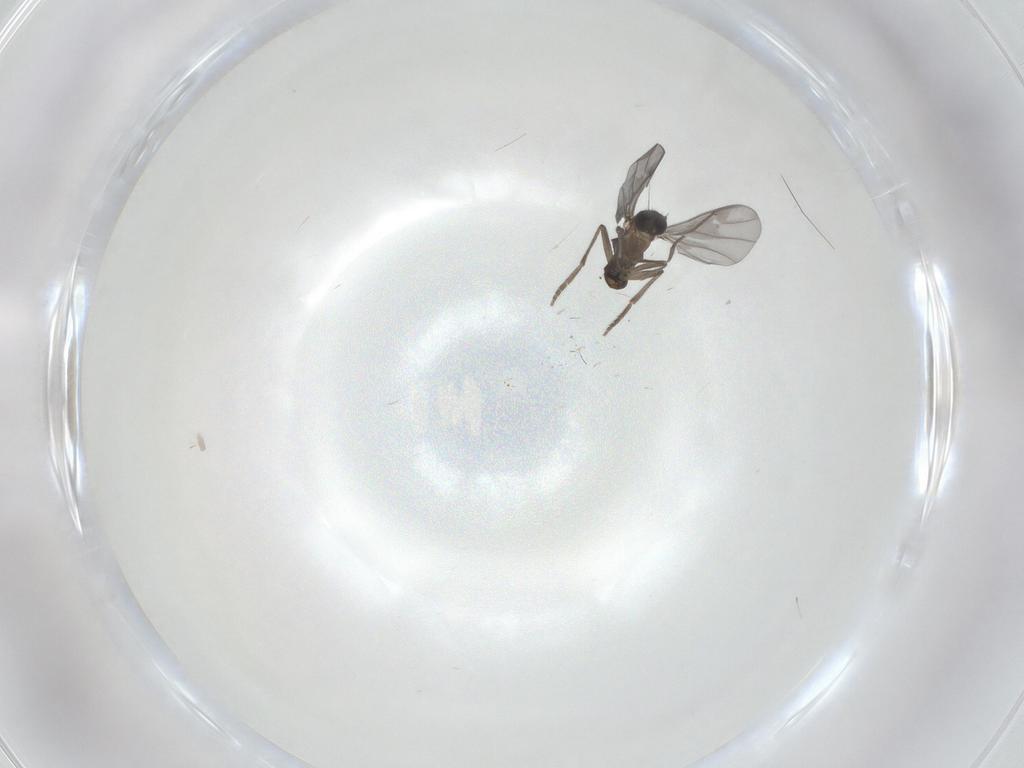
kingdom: Animalia
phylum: Arthropoda
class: Insecta
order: Diptera
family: Cecidomyiidae
